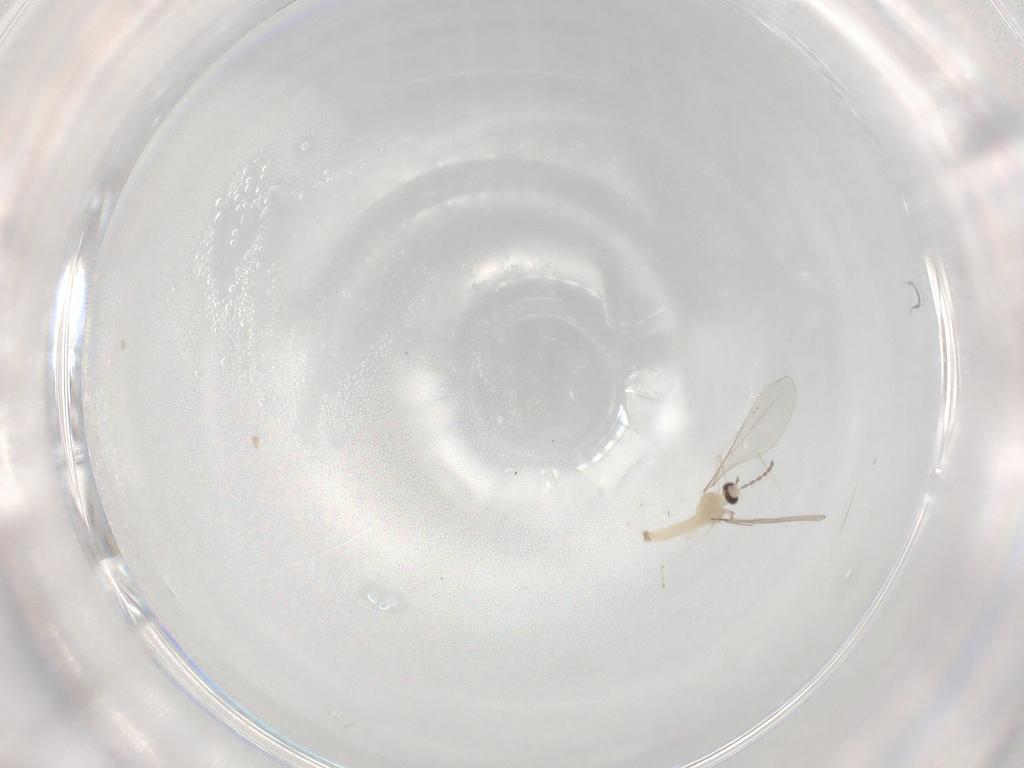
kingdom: Animalia
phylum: Arthropoda
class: Insecta
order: Diptera
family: Cecidomyiidae
